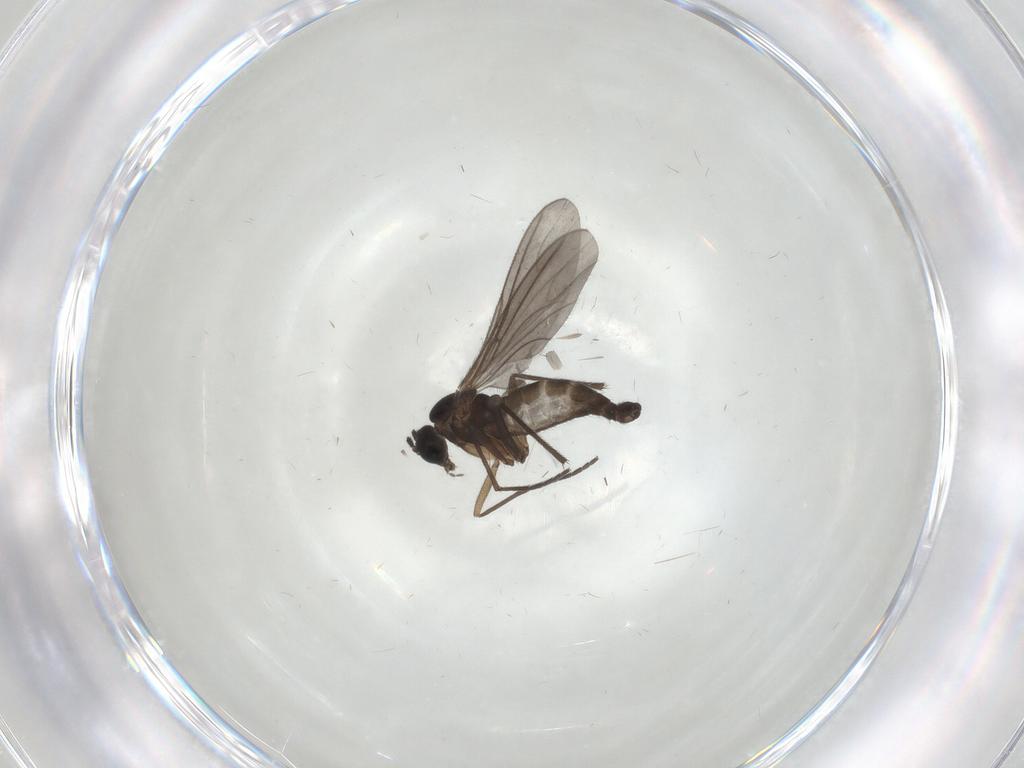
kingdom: Animalia
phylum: Arthropoda
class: Insecta
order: Diptera
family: Sciaridae
